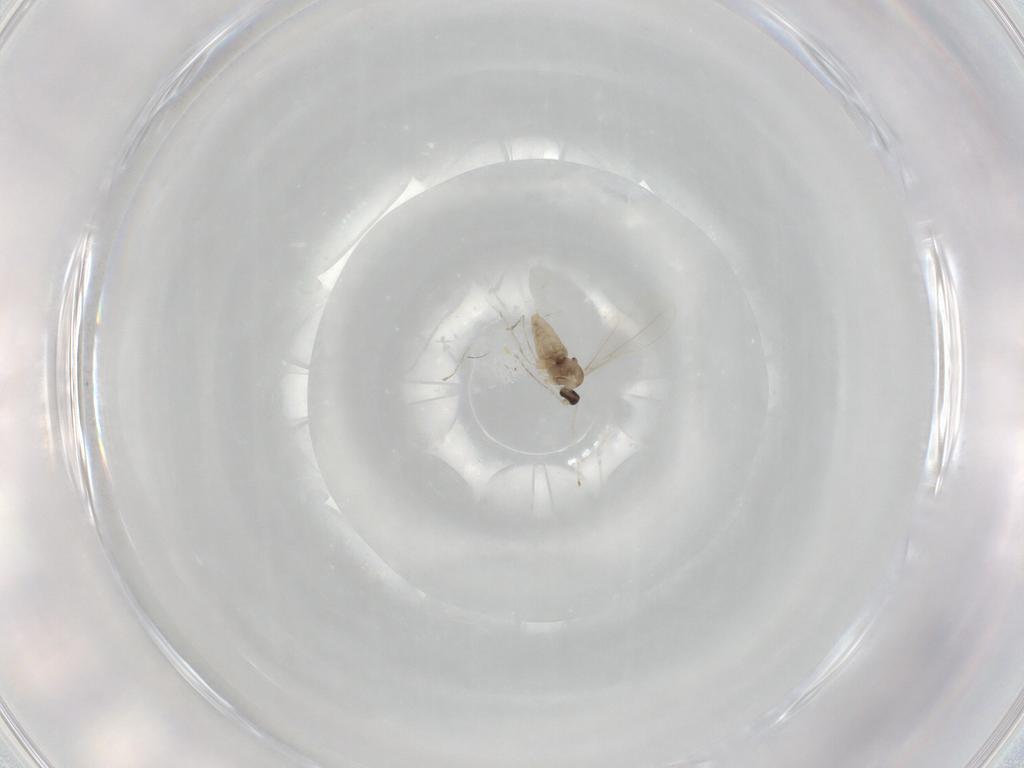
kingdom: Animalia
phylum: Arthropoda
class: Insecta
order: Diptera
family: Cecidomyiidae
